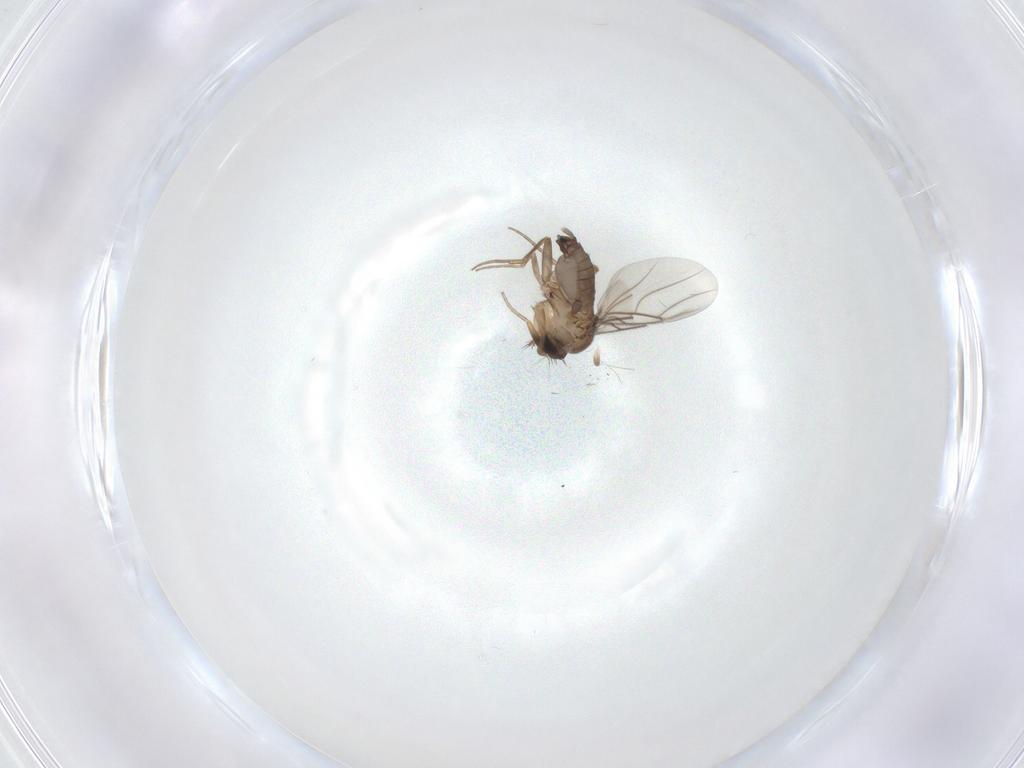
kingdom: Animalia
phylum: Arthropoda
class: Insecta
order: Diptera
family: Phoridae
